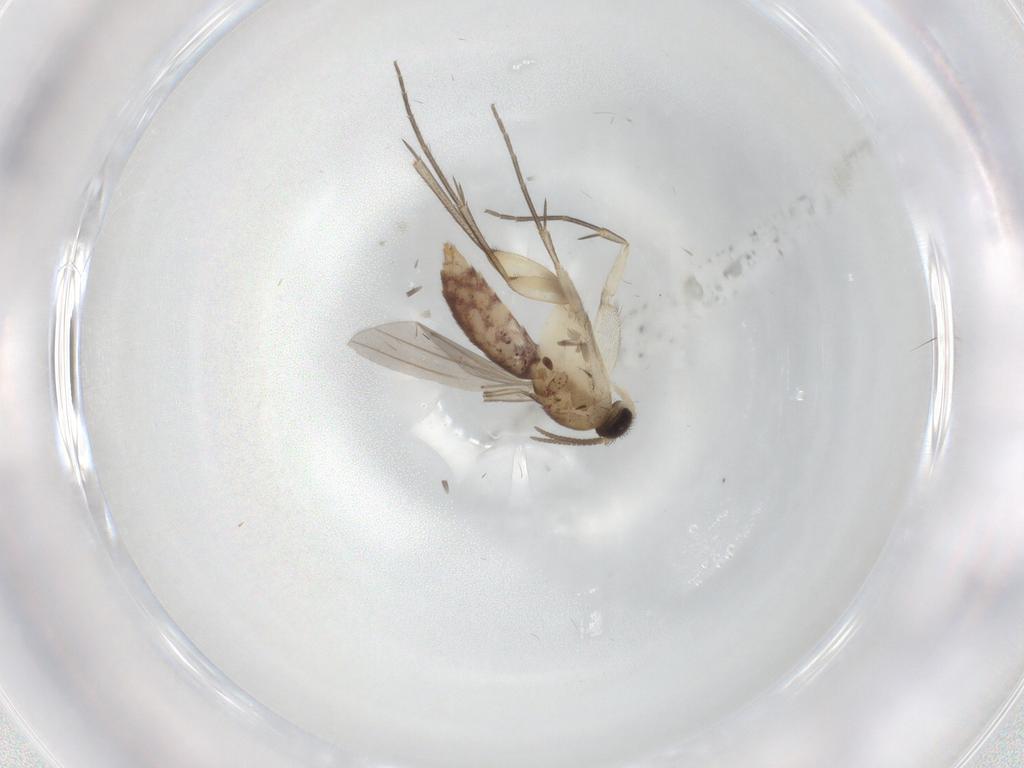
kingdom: Animalia
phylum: Arthropoda
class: Insecta
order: Diptera
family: Mycetophilidae
